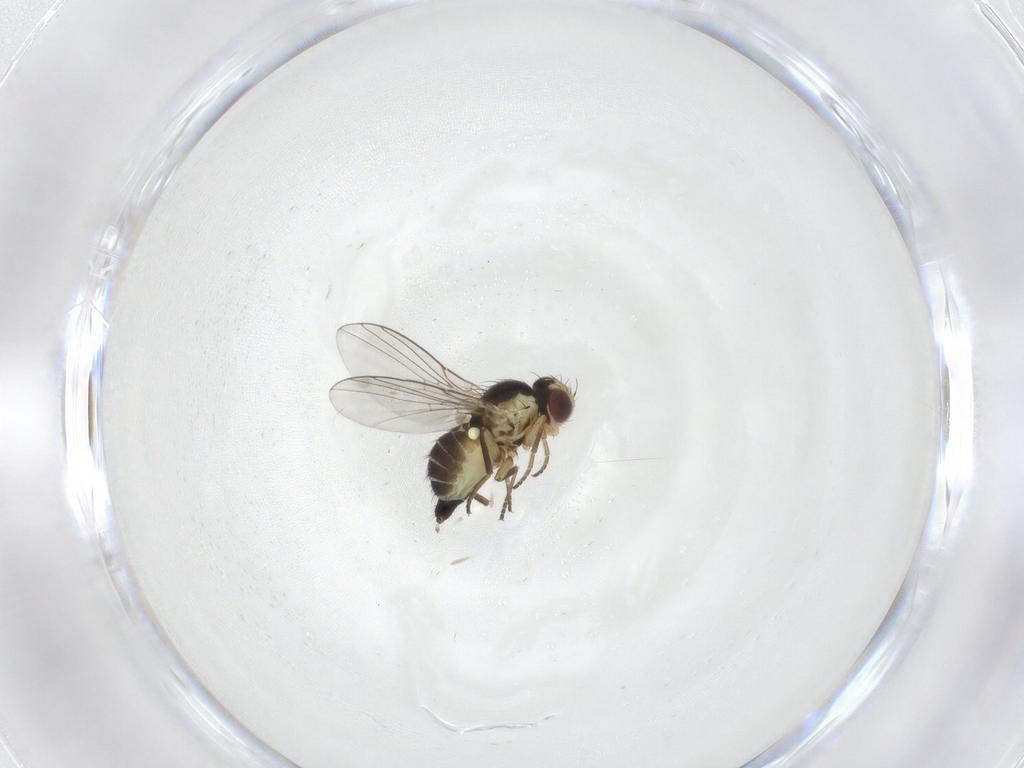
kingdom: Animalia
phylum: Arthropoda
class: Insecta
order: Diptera
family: Agromyzidae
